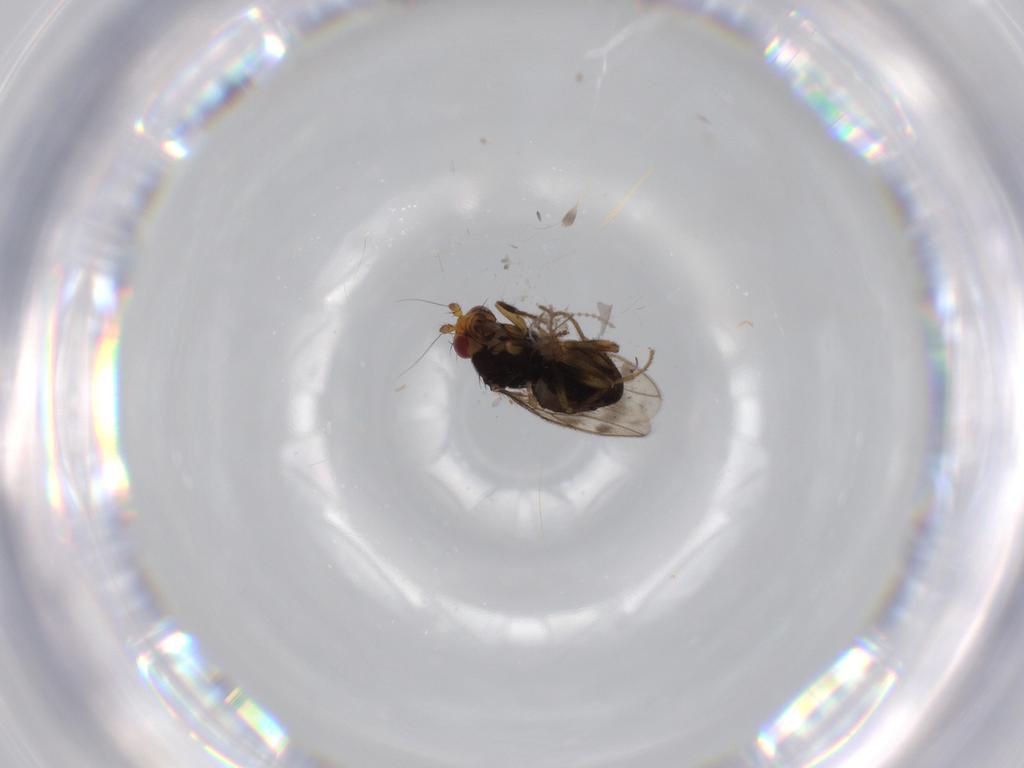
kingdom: Animalia
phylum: Arthropoda
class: Insecta
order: Diptera
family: Sphaeroceridae
